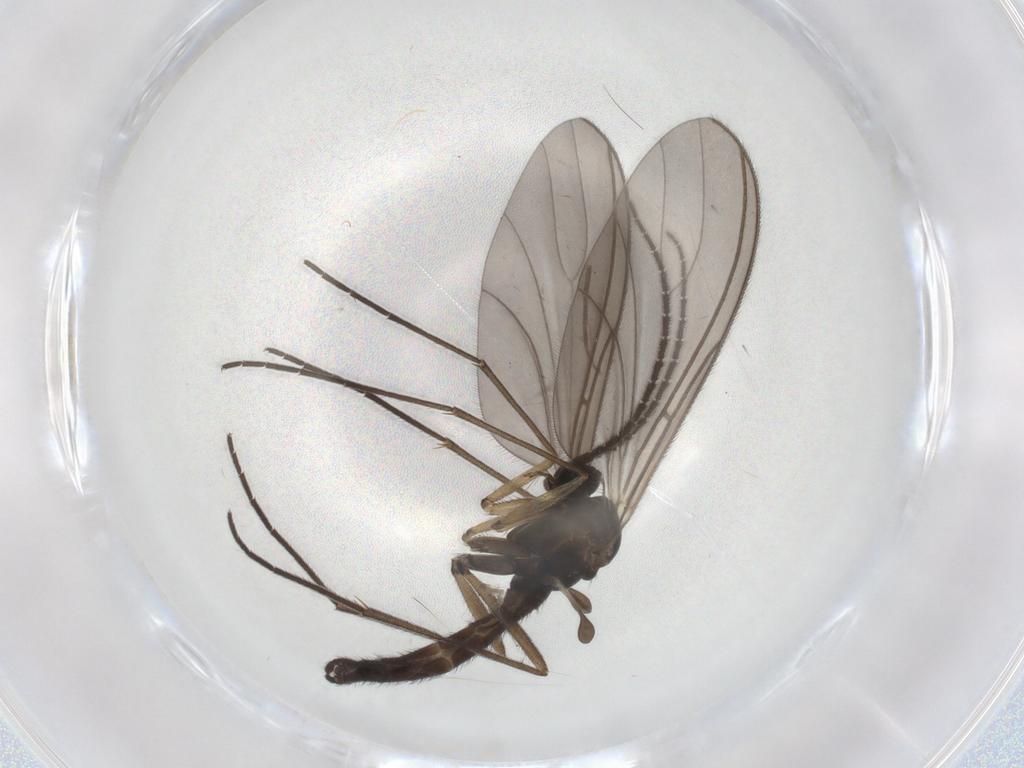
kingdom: Animalia
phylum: Arthropoda
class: Insecta
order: Diptera
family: Sciaridae
